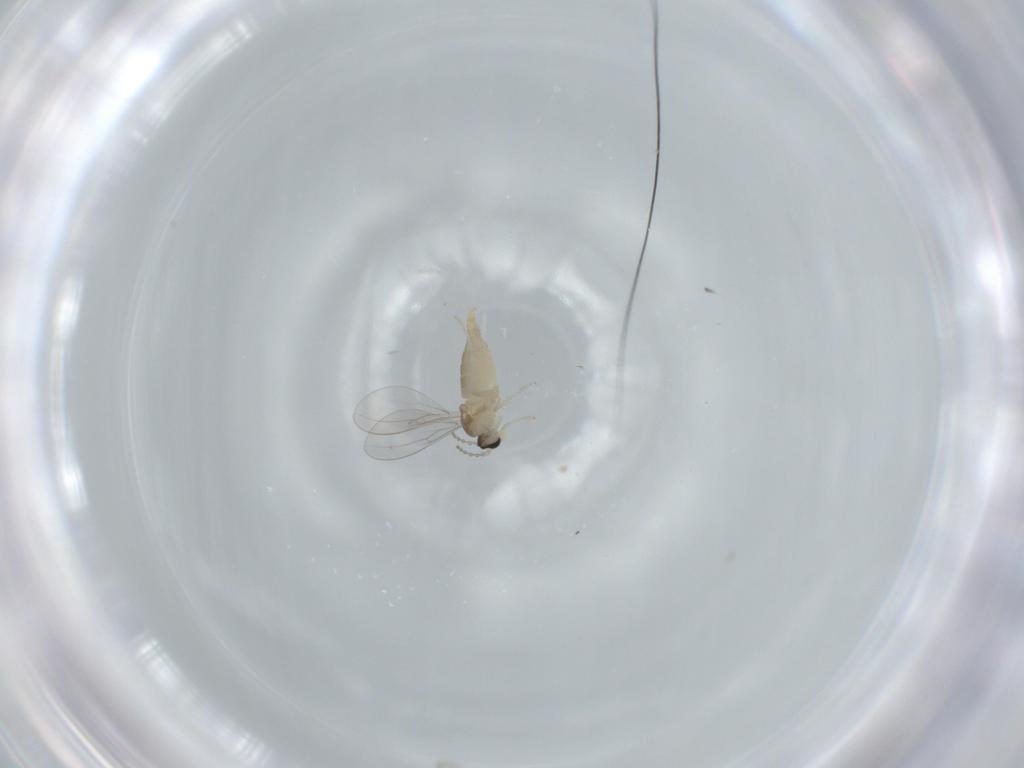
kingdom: Animalia
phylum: Arthropoda
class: Insecta
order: Diptera
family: Cecidomyiidae
